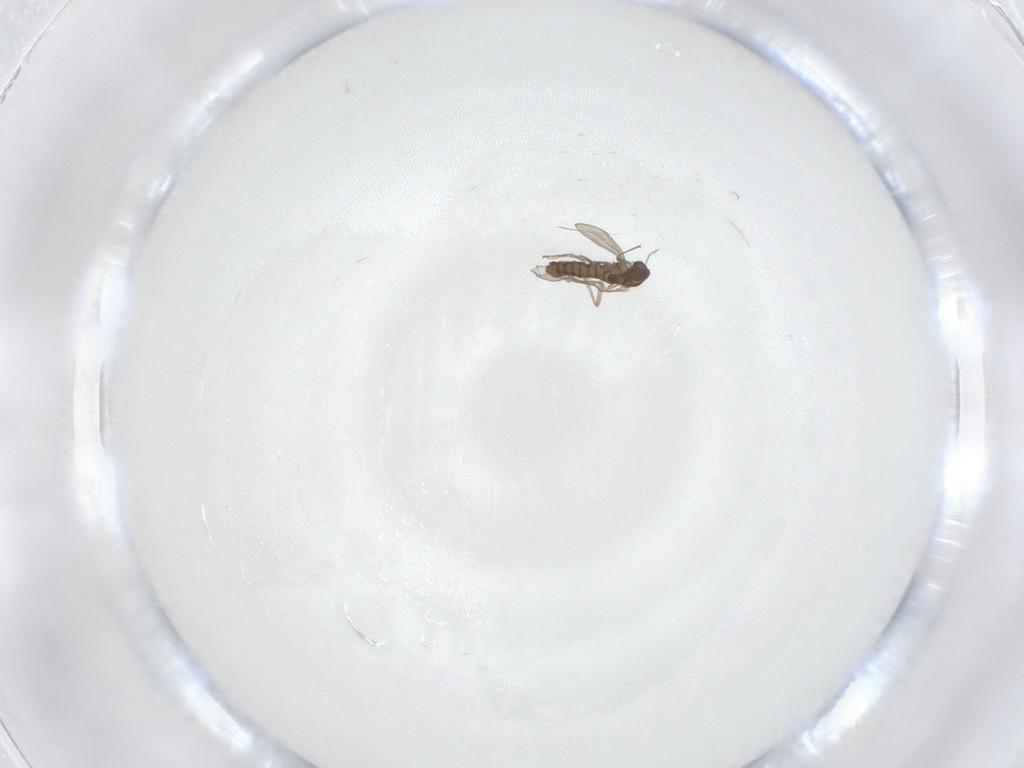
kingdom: Animalia
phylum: Arthropoda
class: Insecta
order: Diptera
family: Chironomidae
